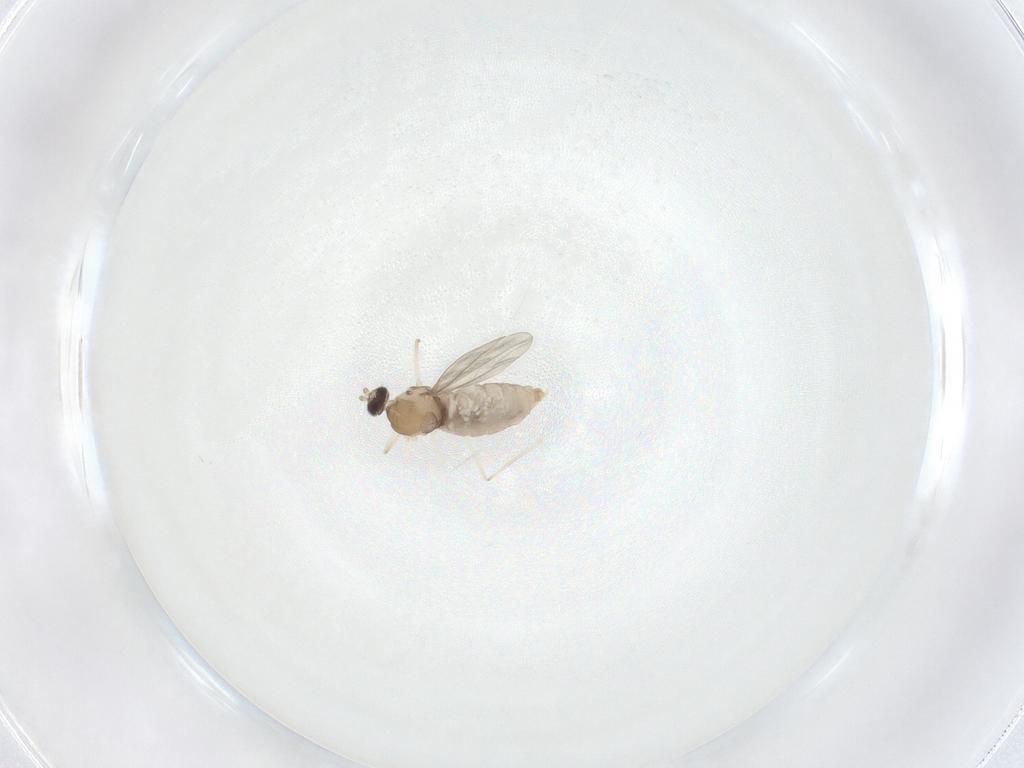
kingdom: Animalia
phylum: Arthropoda
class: Insecta
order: Diptera
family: Cecidomyiidae
